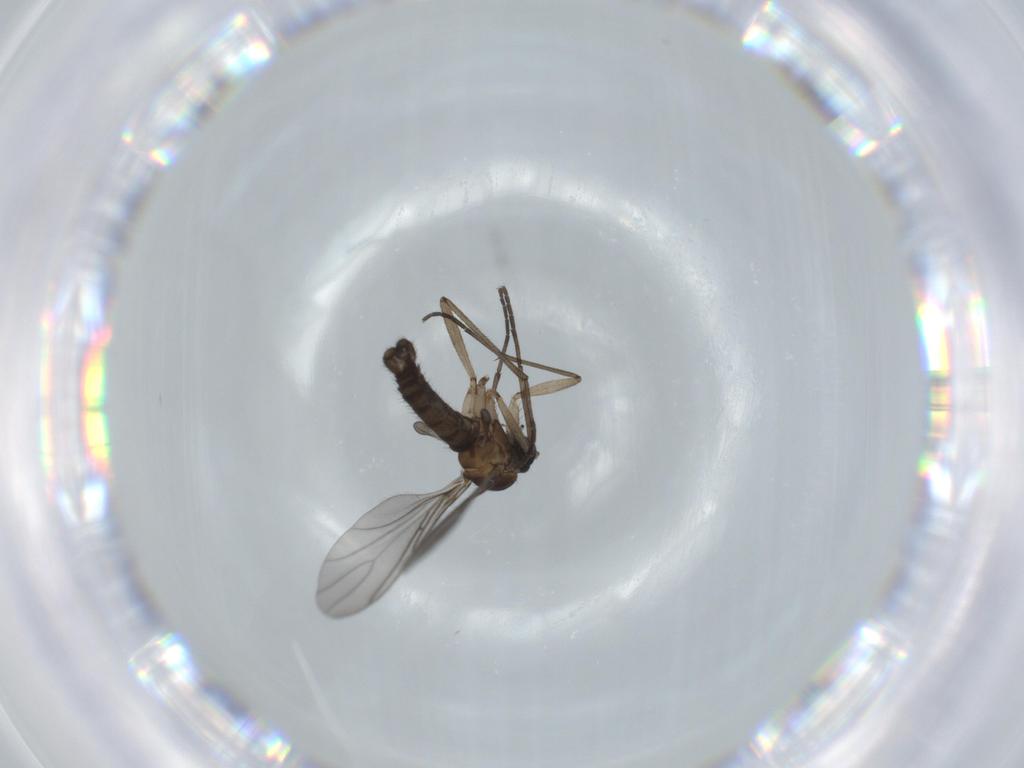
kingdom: Animalia
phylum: Arthropoda
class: Insecta
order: Diptera
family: Sciaridae
